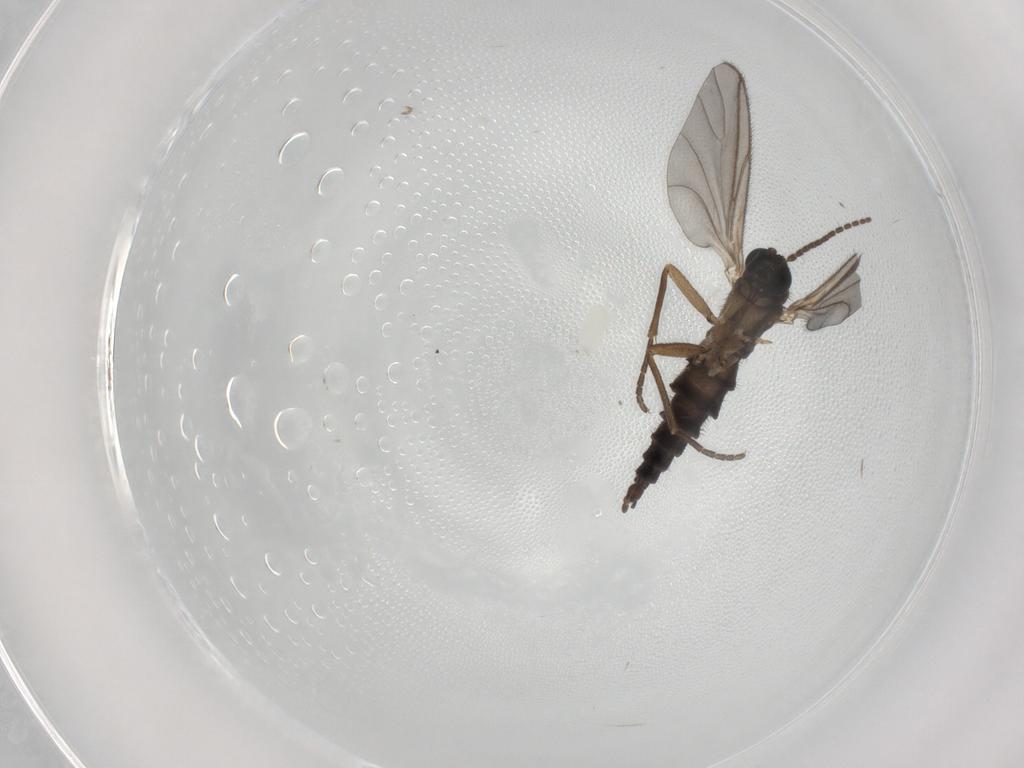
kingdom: Animalia
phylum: Arthropoda
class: Insecta
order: Diptera
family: Sciaridae
